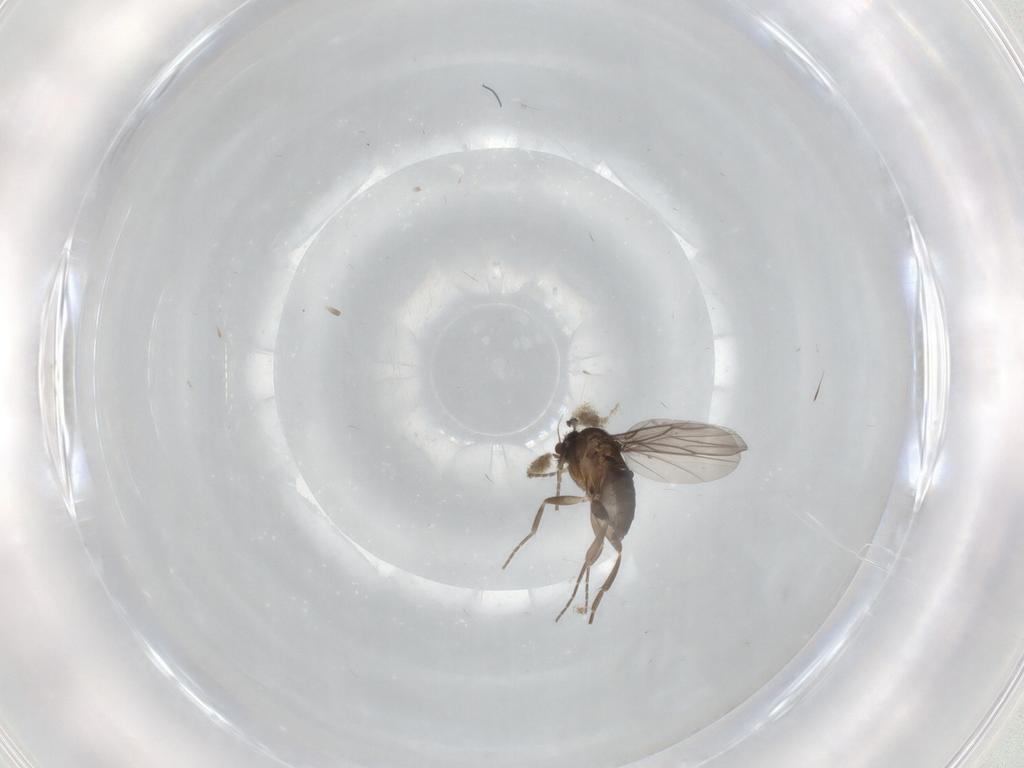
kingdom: Animalia
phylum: Arthropoda
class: Insecta
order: Diptera
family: Phoridae
